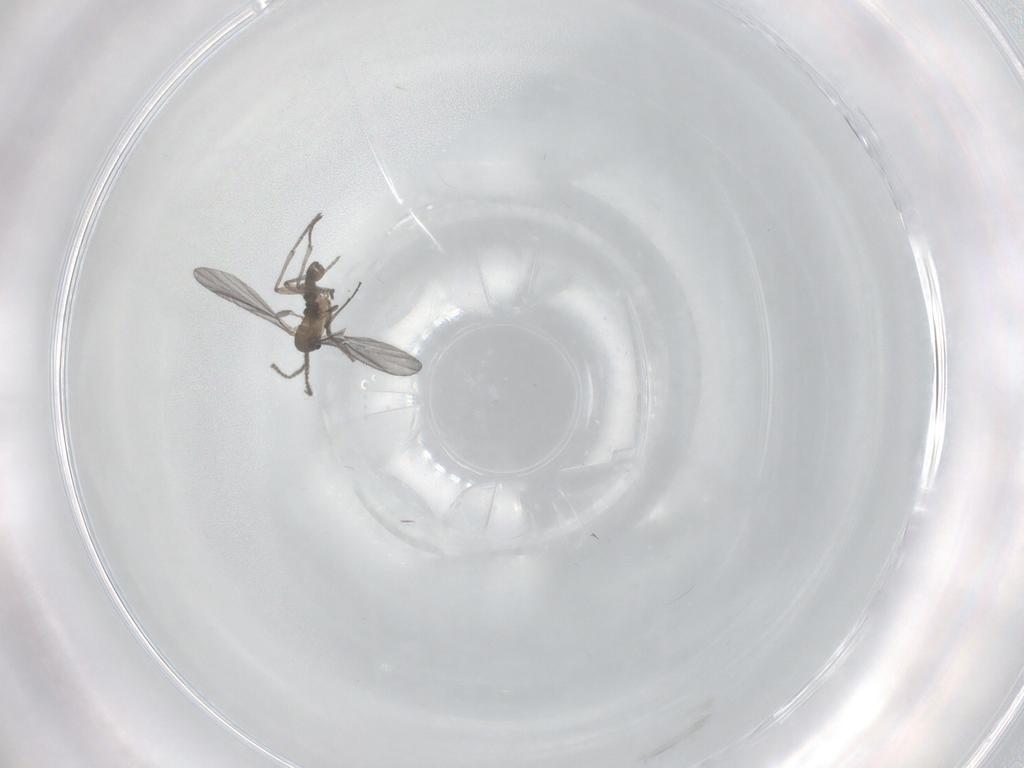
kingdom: Animalia
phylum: Arthropoda
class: Insecta
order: Diptera
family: Sciaridae
